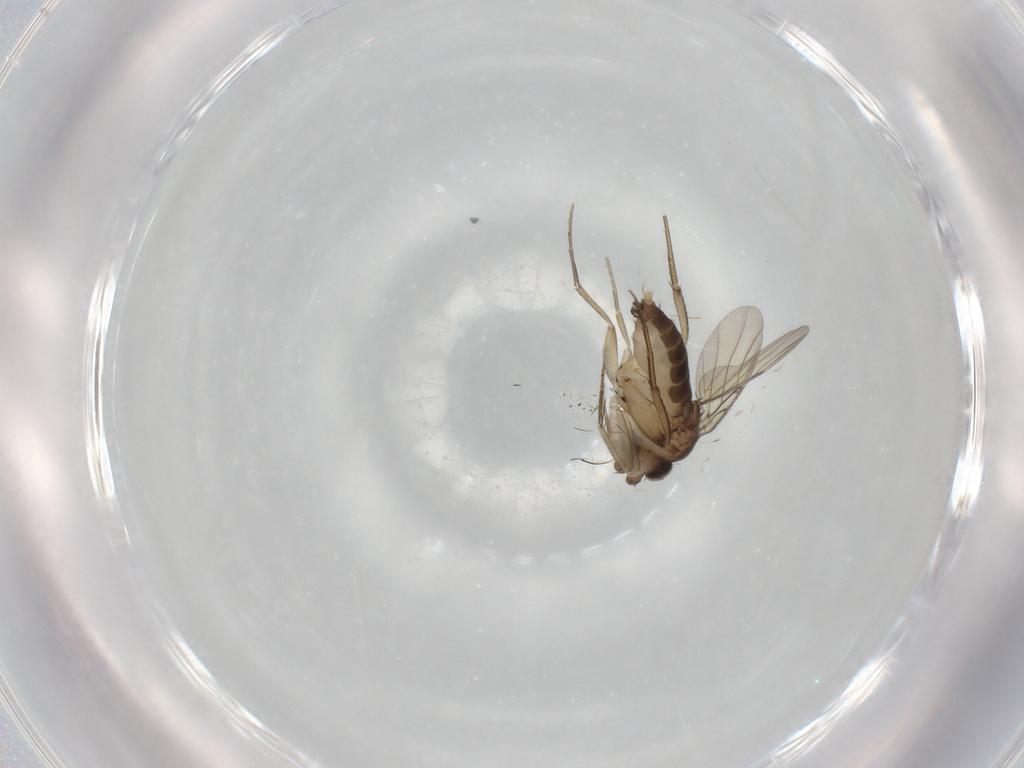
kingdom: Animalia
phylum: Arthropoda
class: Insecta
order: Diptera
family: Phoridae
